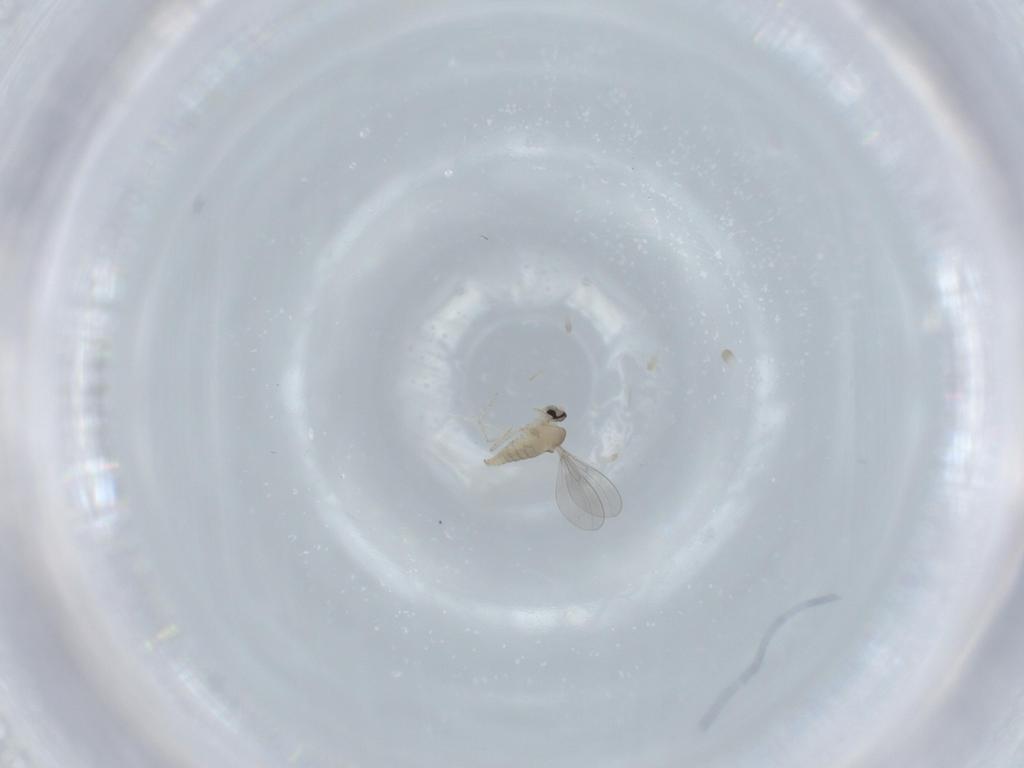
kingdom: Animalia
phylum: Arthropoda
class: Insecta
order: Diptera
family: Cecidomyiidae
